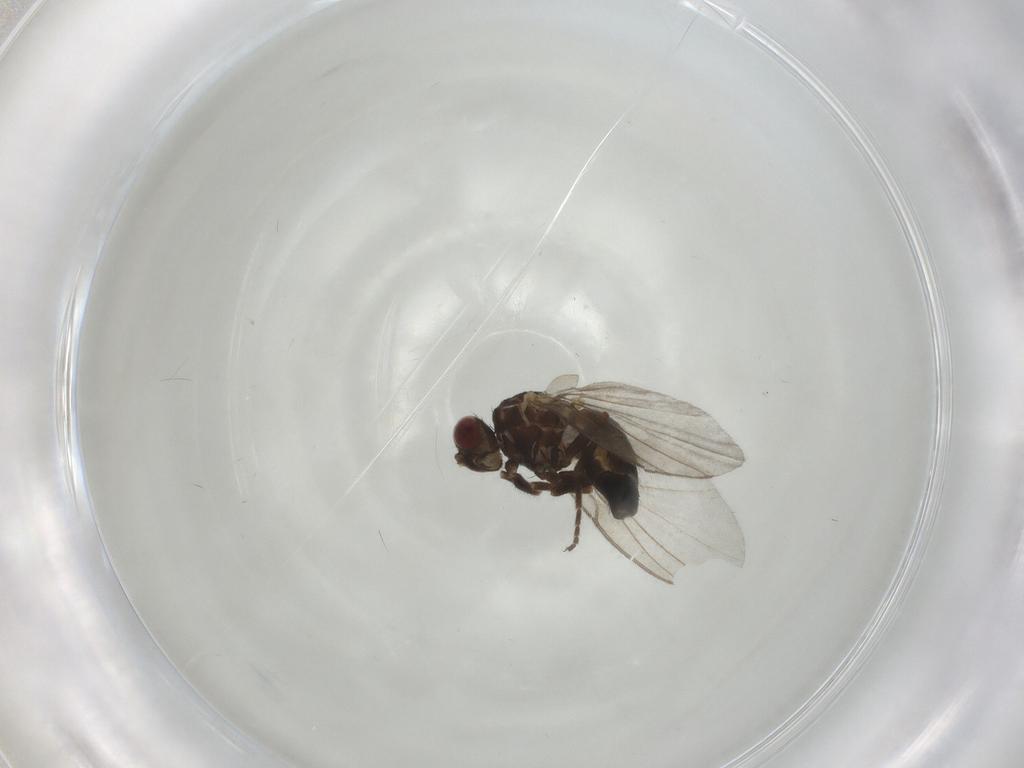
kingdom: Animalia
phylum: Arthropoda
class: Insecta
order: Diptera
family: Agromyzidae
